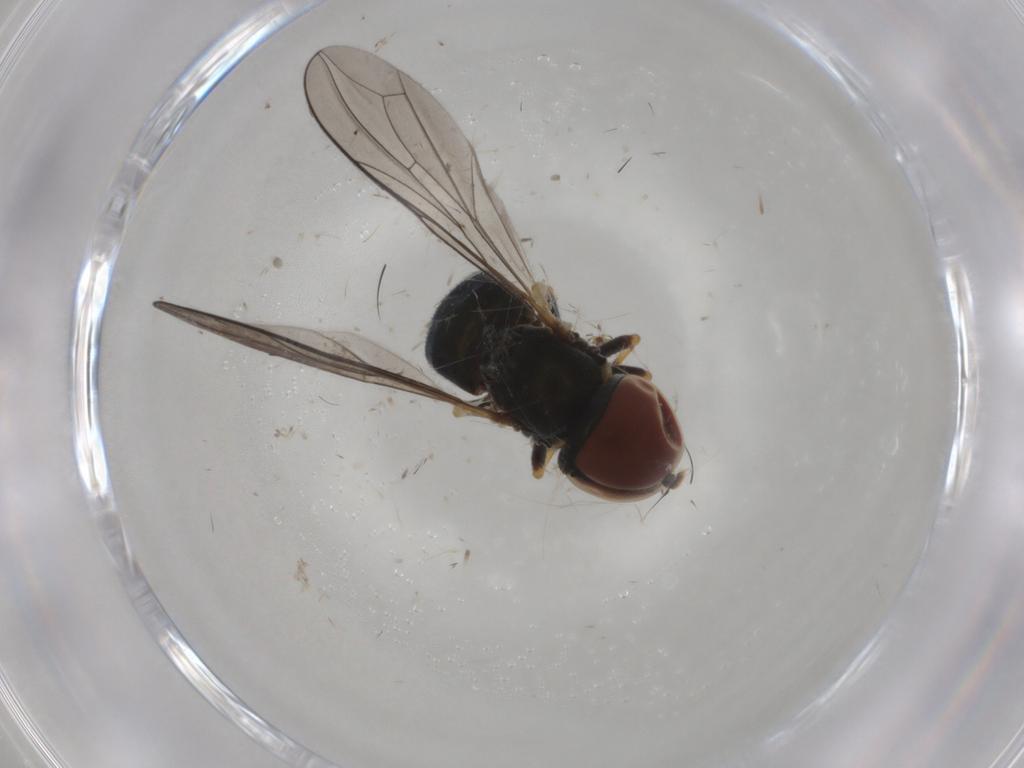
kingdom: Animalia
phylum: Arthropoda
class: Insecta
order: Diptera
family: Pipunculidae
